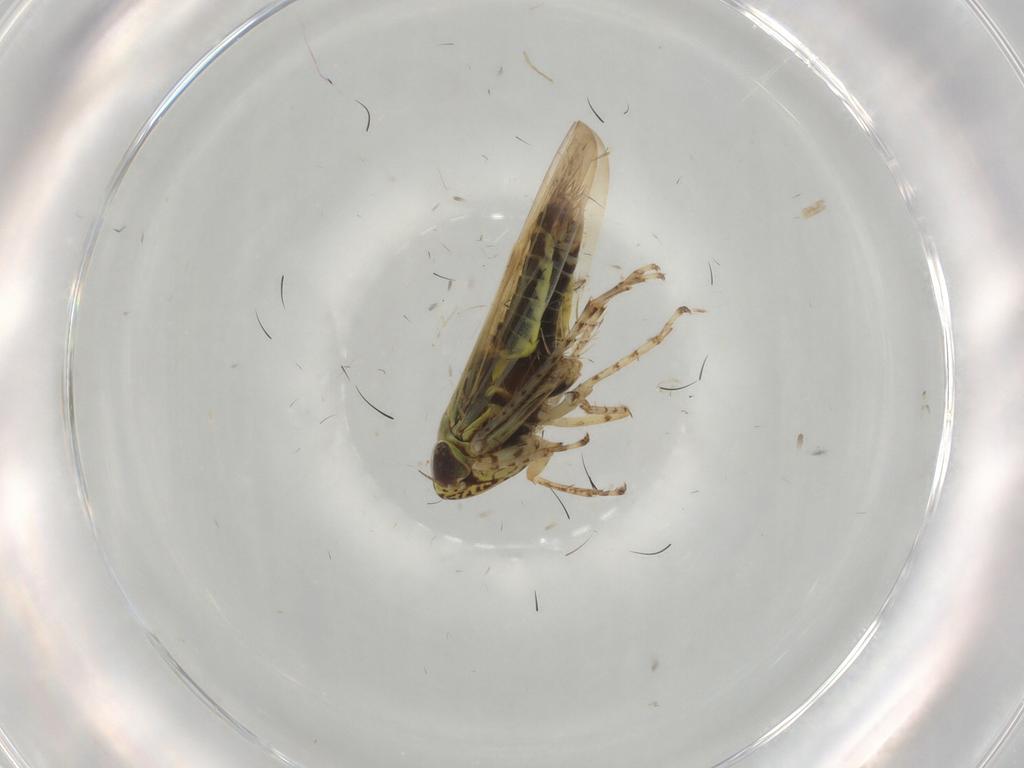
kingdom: Animalia
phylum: Arthropoda
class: Insecta
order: Hemiptera
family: Cicadellidae
